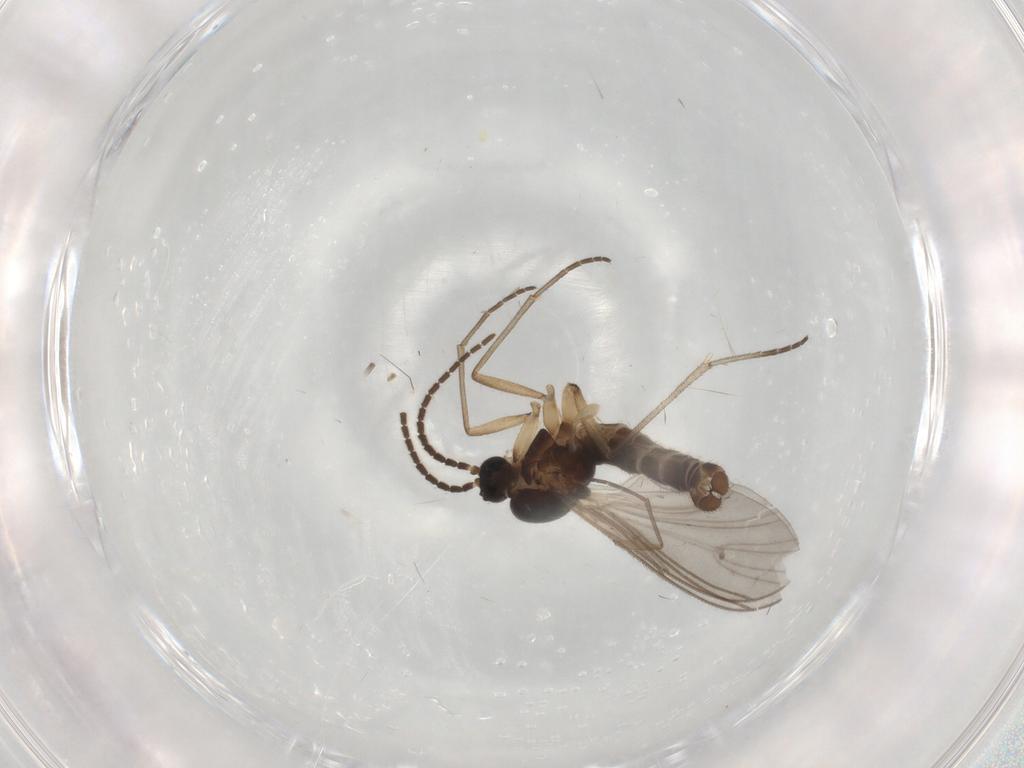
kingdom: Animalia
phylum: Arthropoda
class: Insecta
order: Diptera
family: Sciaridae
